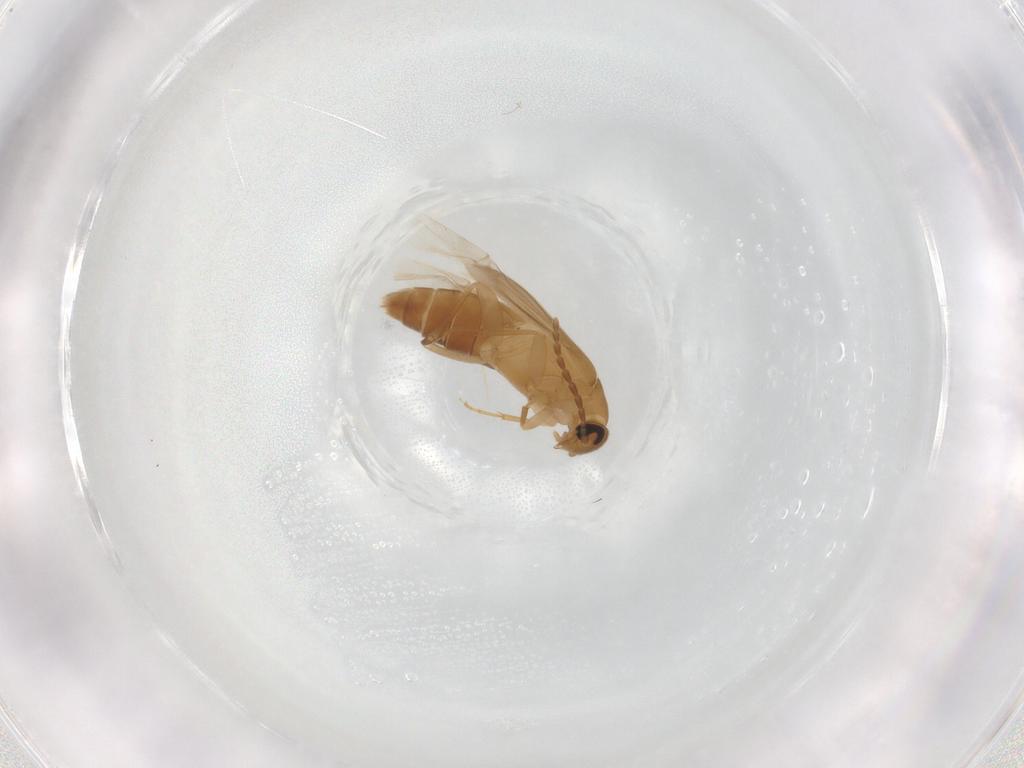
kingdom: Animalia
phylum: Arthropoda
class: Insecta
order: Coleoptera
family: Scraptiidae
